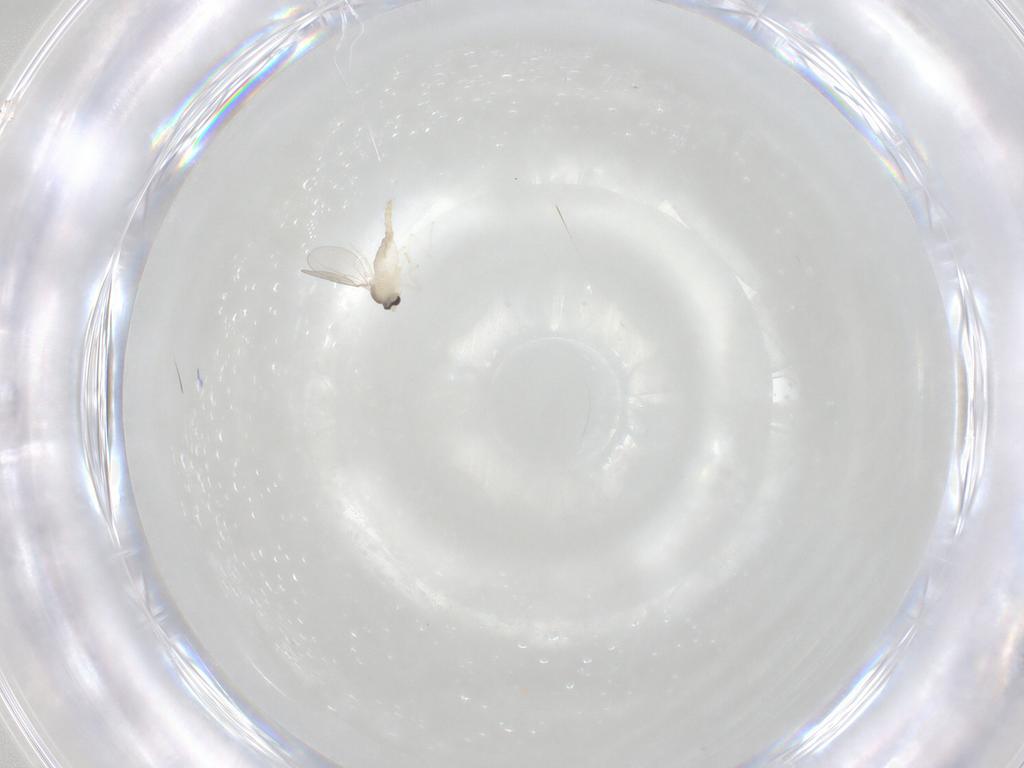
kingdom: Animalia
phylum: Arthropoda
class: Insecta
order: Diptera
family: Cecidomyiidae
